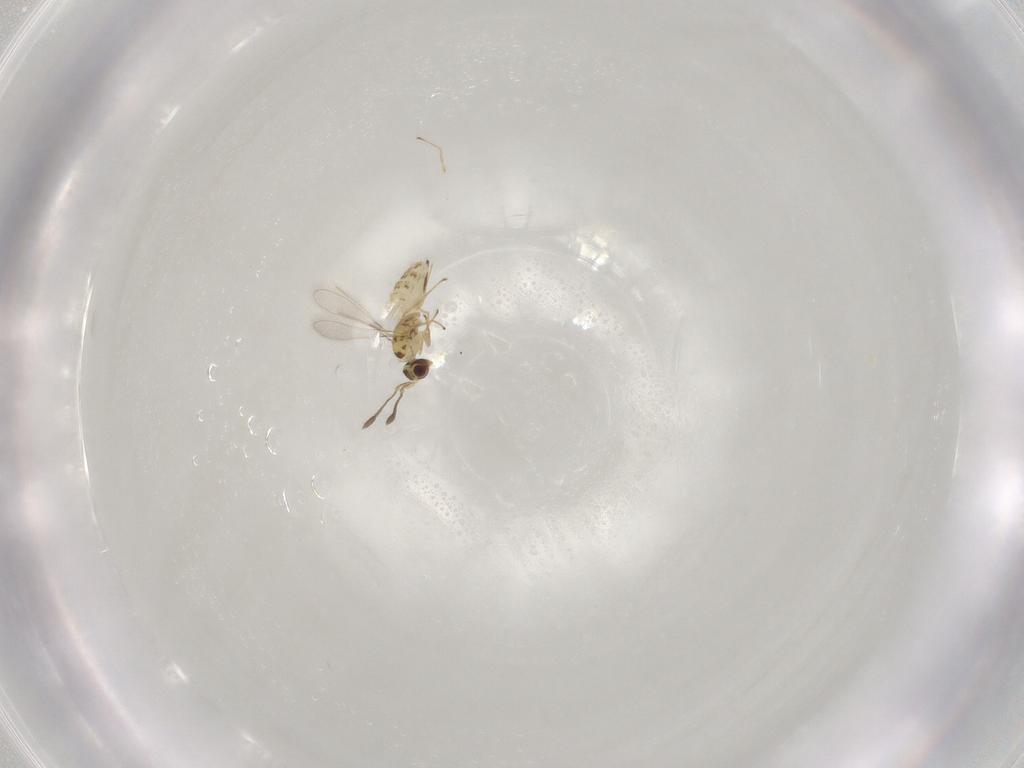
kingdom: Animalia
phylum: Arthropoda
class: Insecta
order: Hymenoptera
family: Mymaridae
